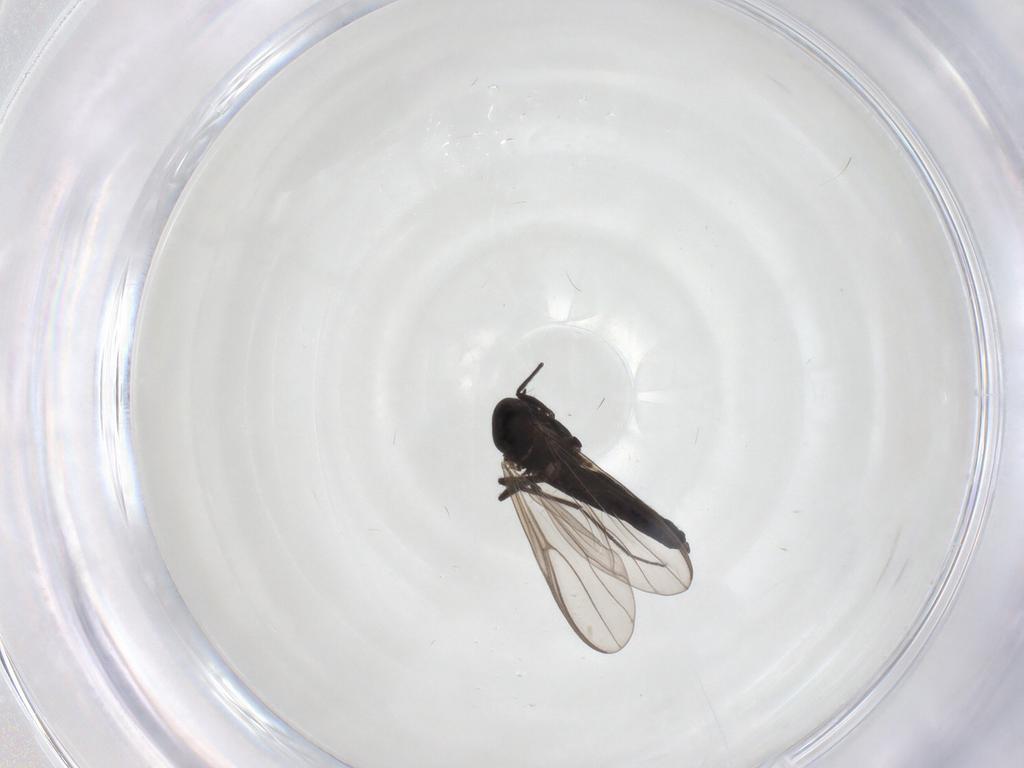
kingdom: Animalia
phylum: Arthropoda
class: Insecta
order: Diptera
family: Chironomidae
